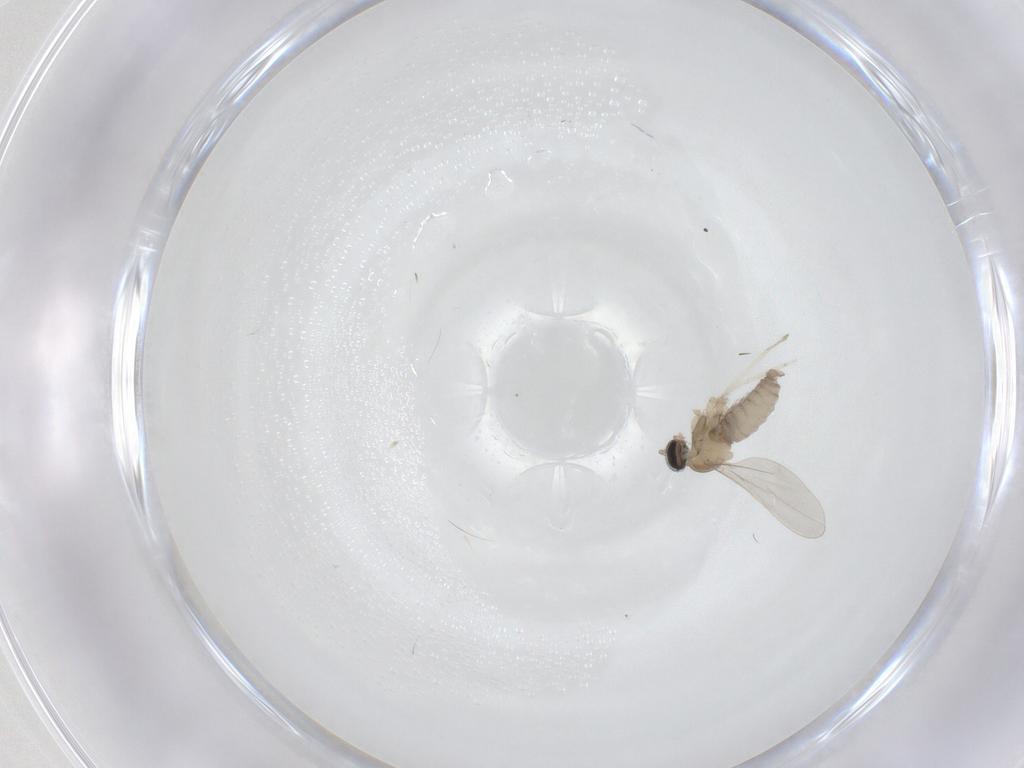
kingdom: Animalia
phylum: Arthropoda
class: Insecta
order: Diptera
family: Cecidomyiidae
